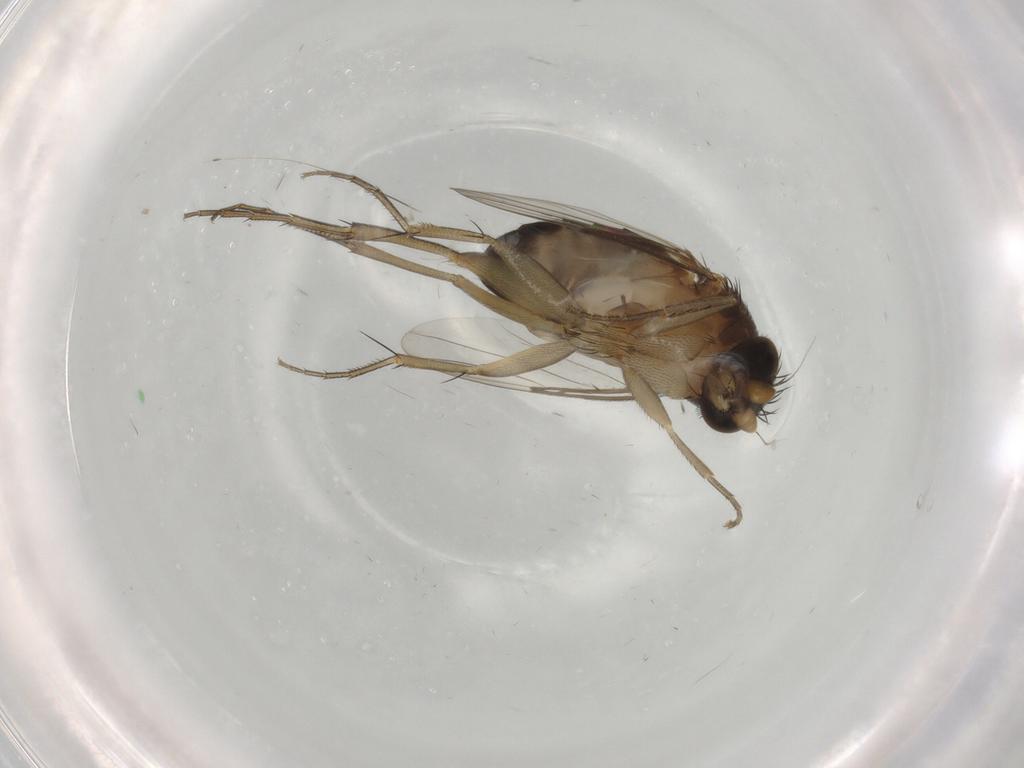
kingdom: Animalia
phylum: Arthropoda
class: Insecta
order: Diptera
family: Phoridae
